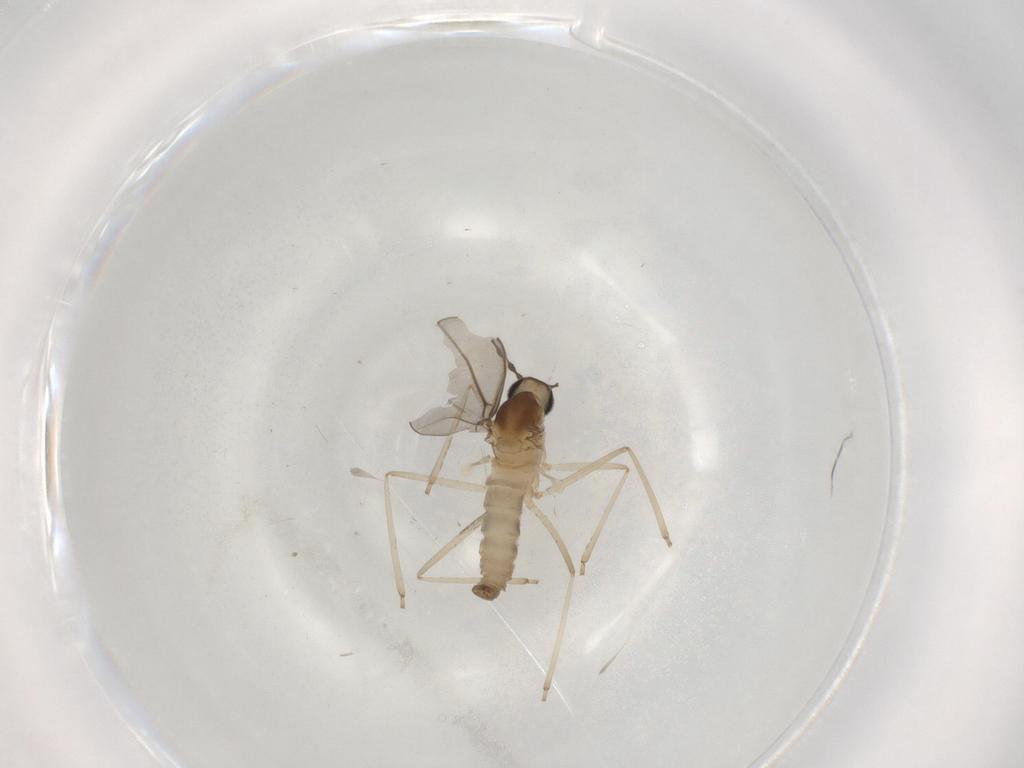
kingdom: Animalia
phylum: Arthropoda
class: Insecta
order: Diptera
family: Cecidomyiidae
